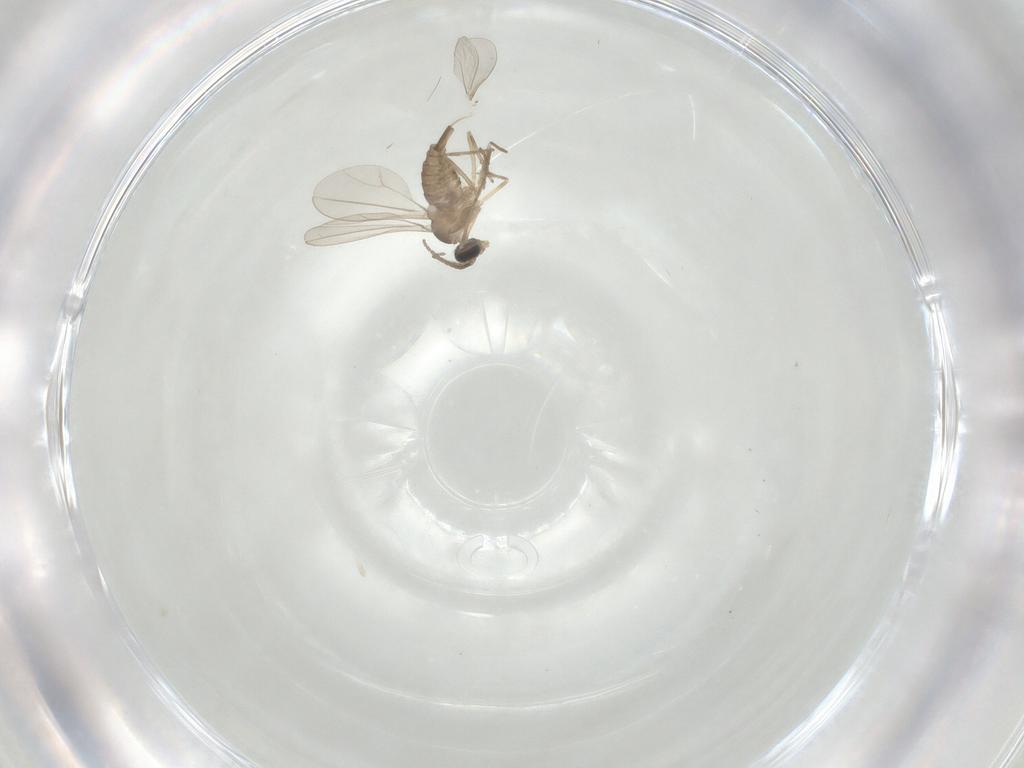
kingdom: Animalia
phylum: Arthropoda
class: Insecta
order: Diptera
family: Cecidomyiidae
